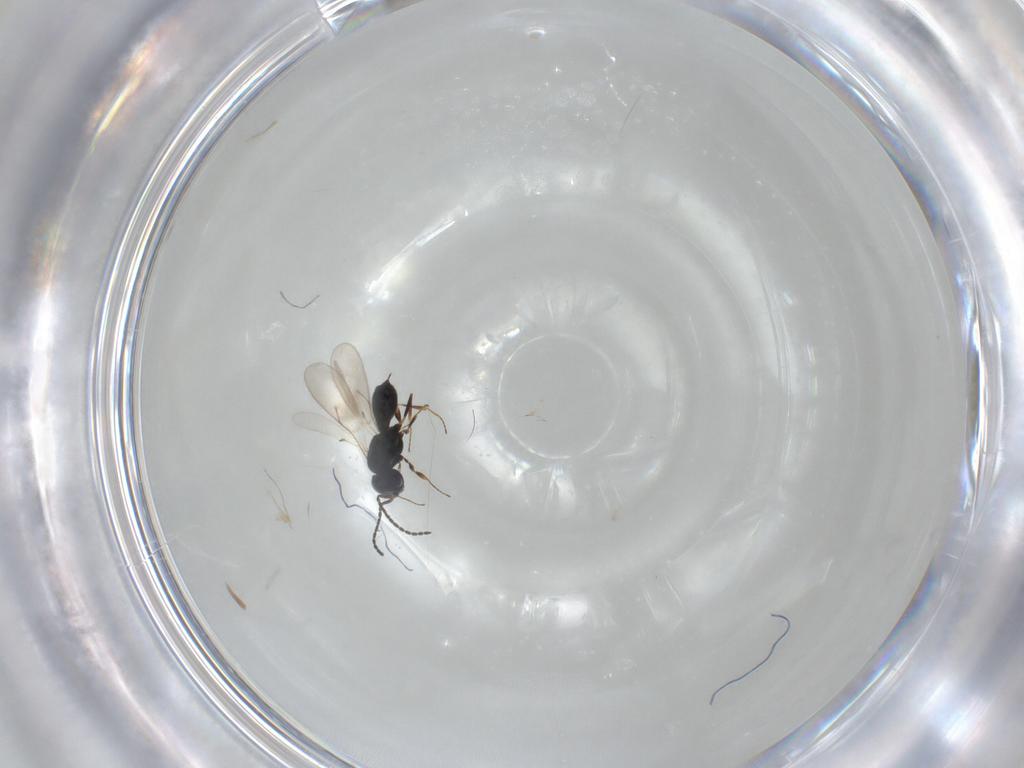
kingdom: Animalia
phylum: Arthropoda
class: Insecta
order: Hymenoptera
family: Scelionidae
